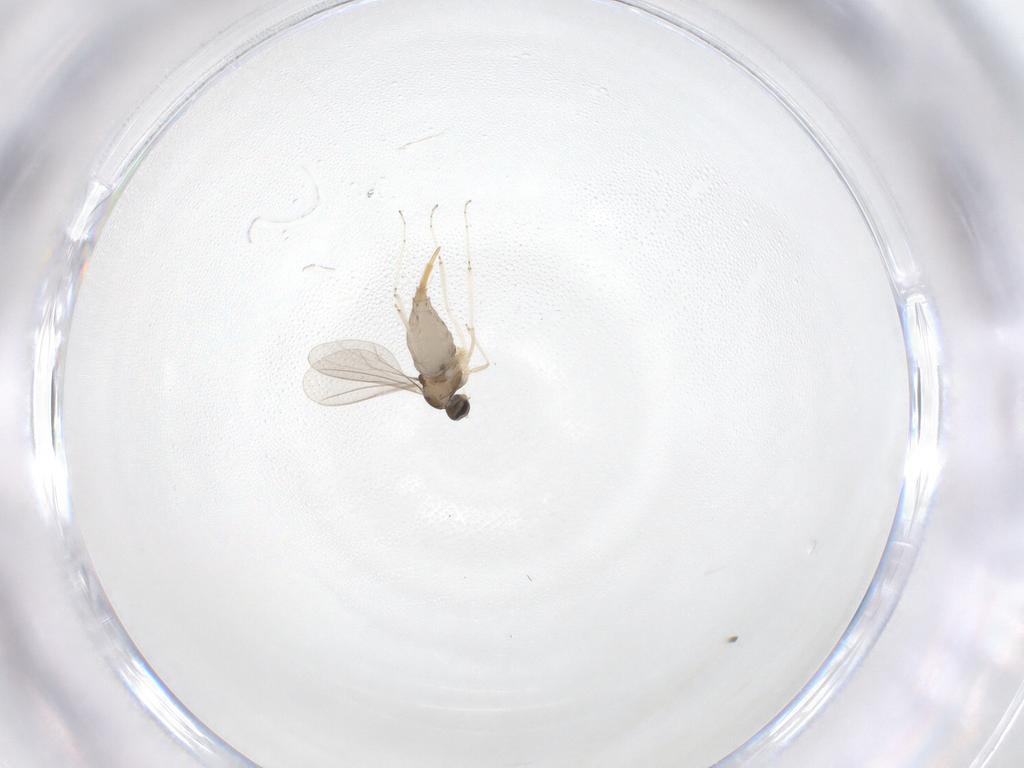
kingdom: Animalia
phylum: Arthropoda
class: Insecta
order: Diptera
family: Cecidomyiidae
